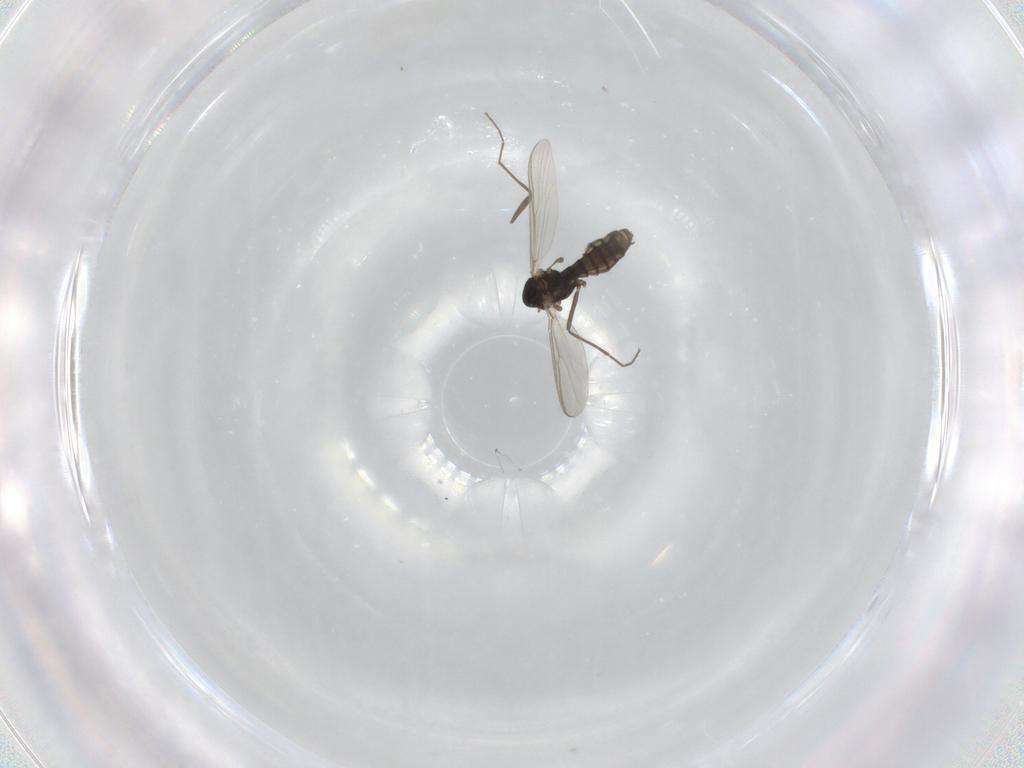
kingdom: Animalia
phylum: Arthropoda
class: Insecta
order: Diptera
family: Chironomidae
